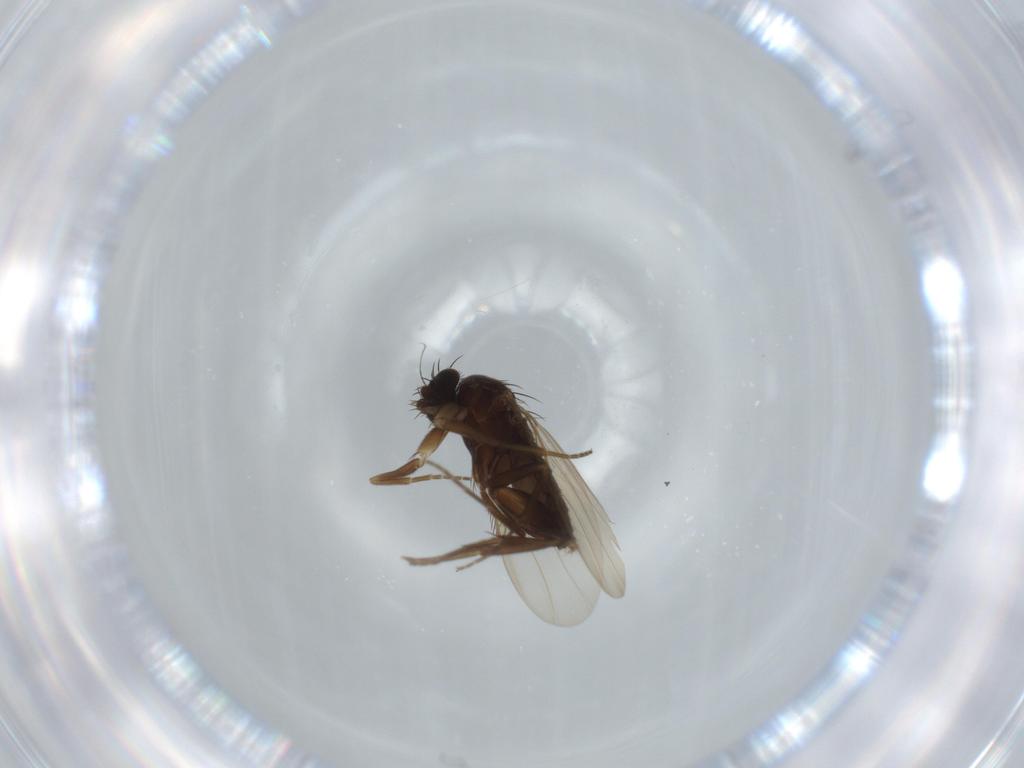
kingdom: Animalia
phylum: Arthropoda
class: Insecta
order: Diptera
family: Phoridae
